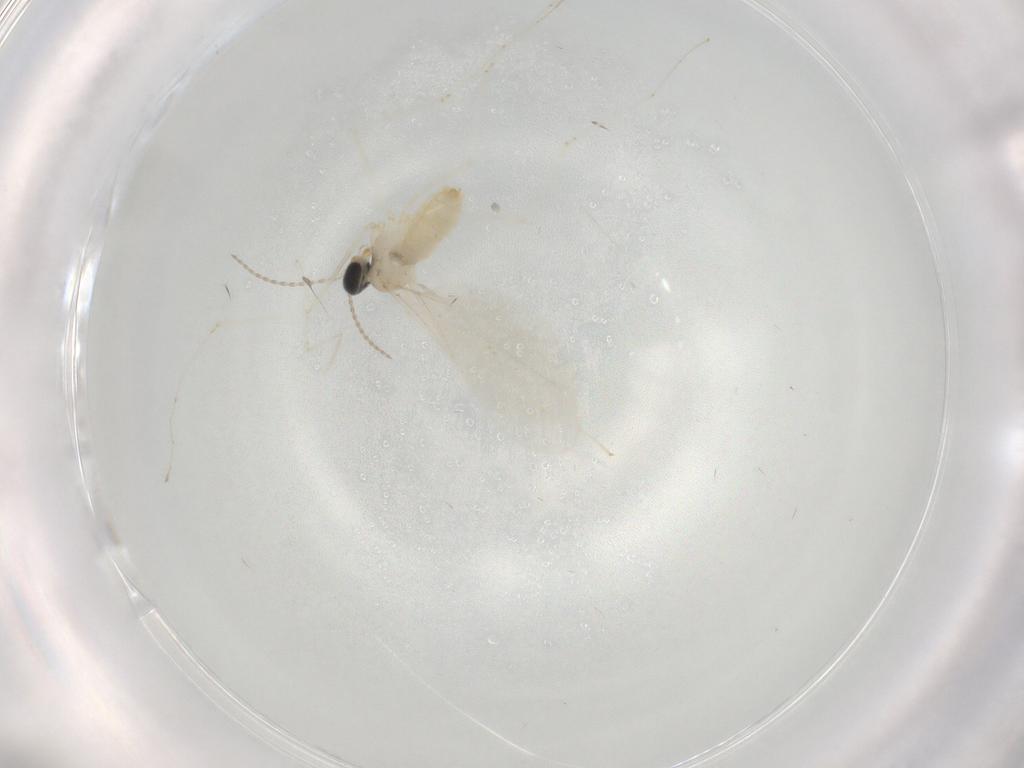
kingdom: Animalia
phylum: Arthropoda
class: Insecta
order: Diptera
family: Cecidomyiidae
